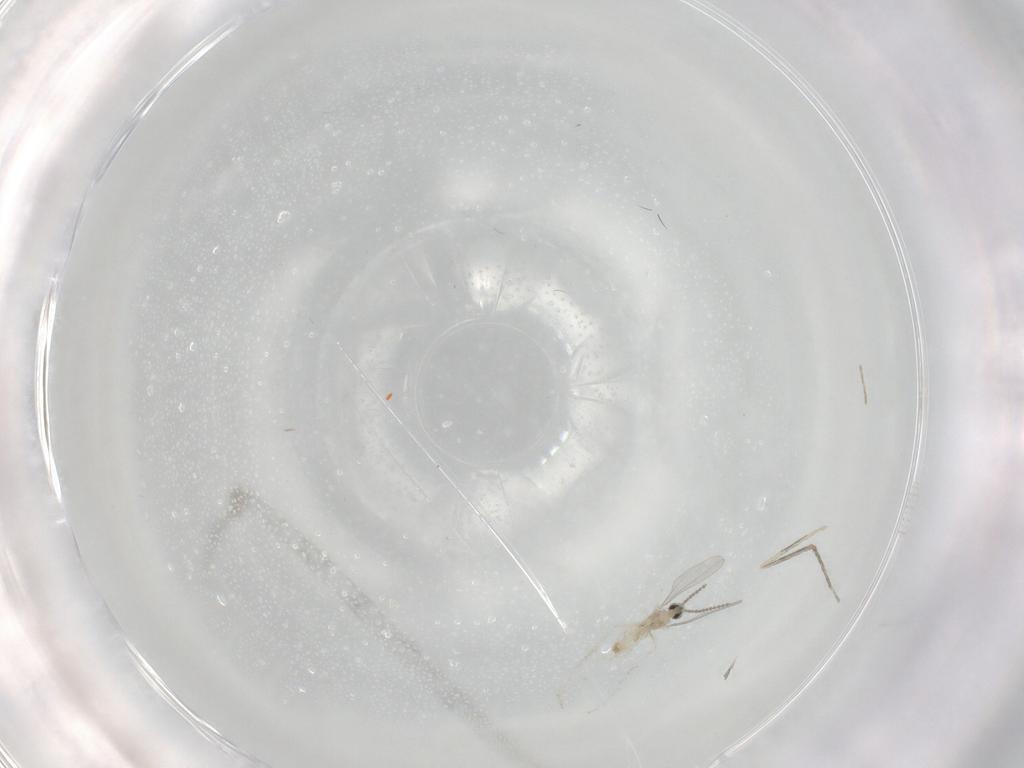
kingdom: Animalia
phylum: Arthropoda
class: Insecta
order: Diptera
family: Cecidomyiidae
